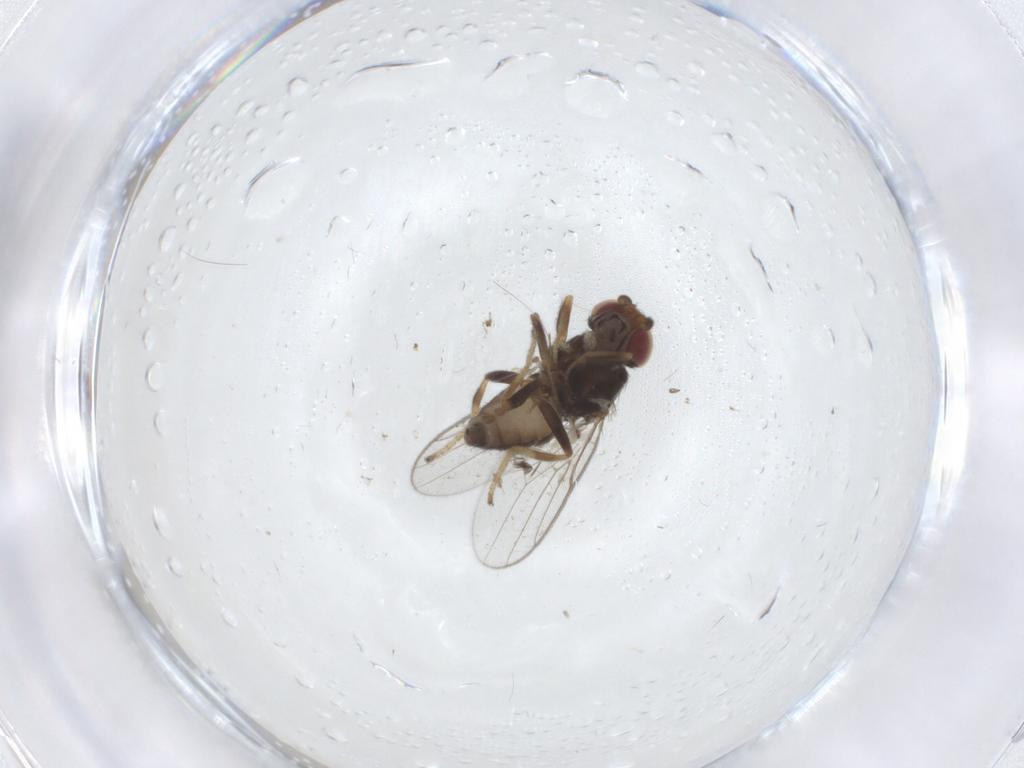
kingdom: Animalia
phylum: Arthropoda
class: Insecta
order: Diptera
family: Chloropidae
